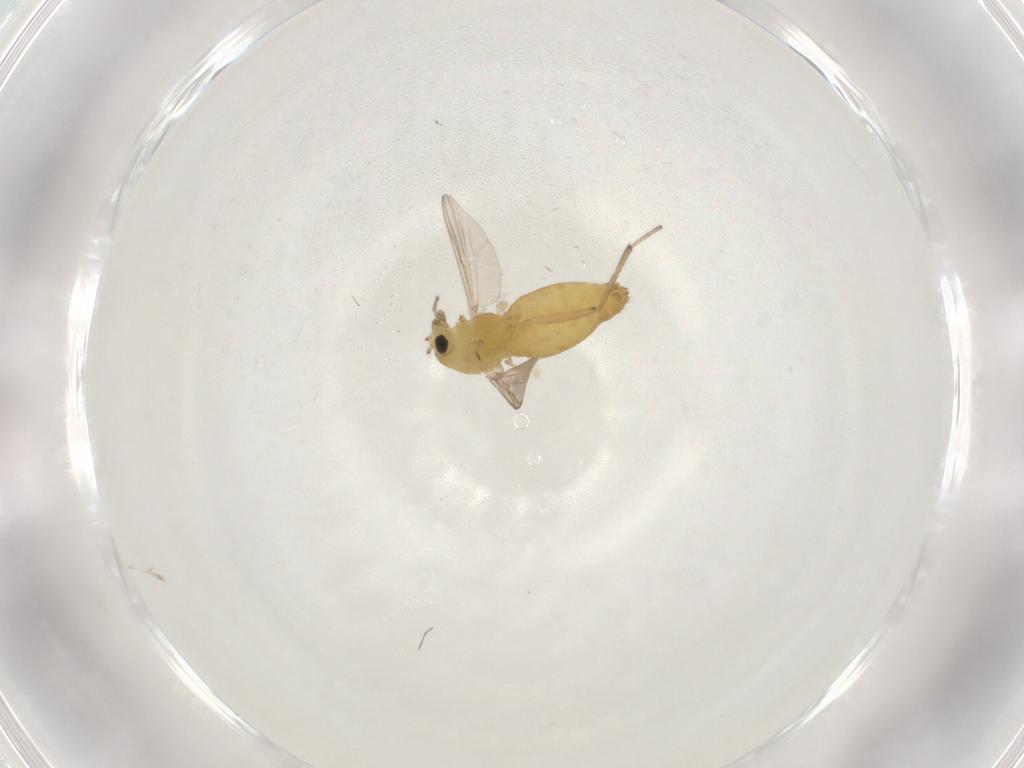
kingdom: Animalia
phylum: Arthropoda
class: Insecta
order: Diptera
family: Chironomidae
